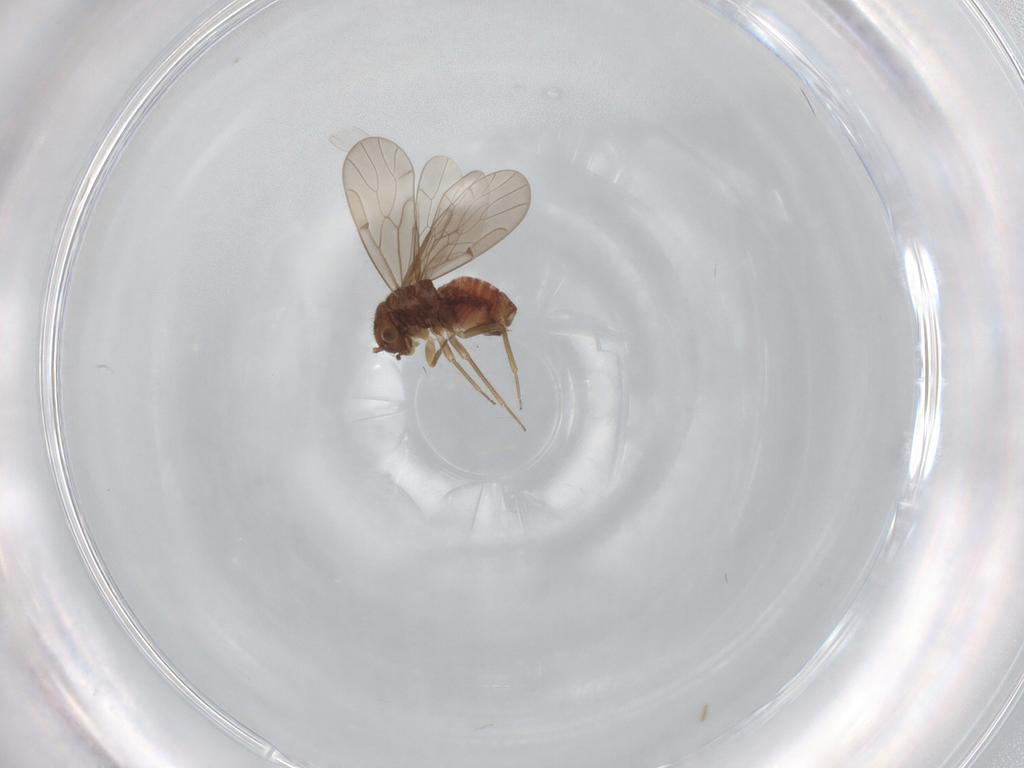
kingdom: Animalia
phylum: Arthropoda
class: Insecta
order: Psocodea
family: Ectopsocidae
